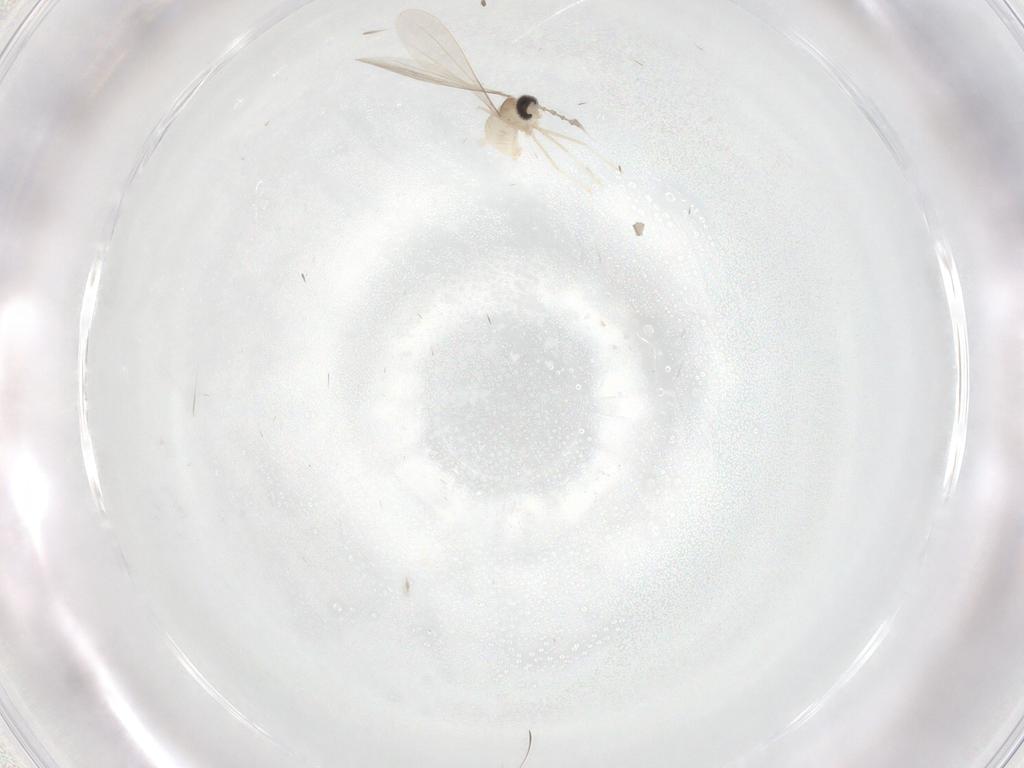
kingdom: Animalia
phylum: Arthropoda
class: Insecta
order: Diptera
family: Cecidomyiidae
